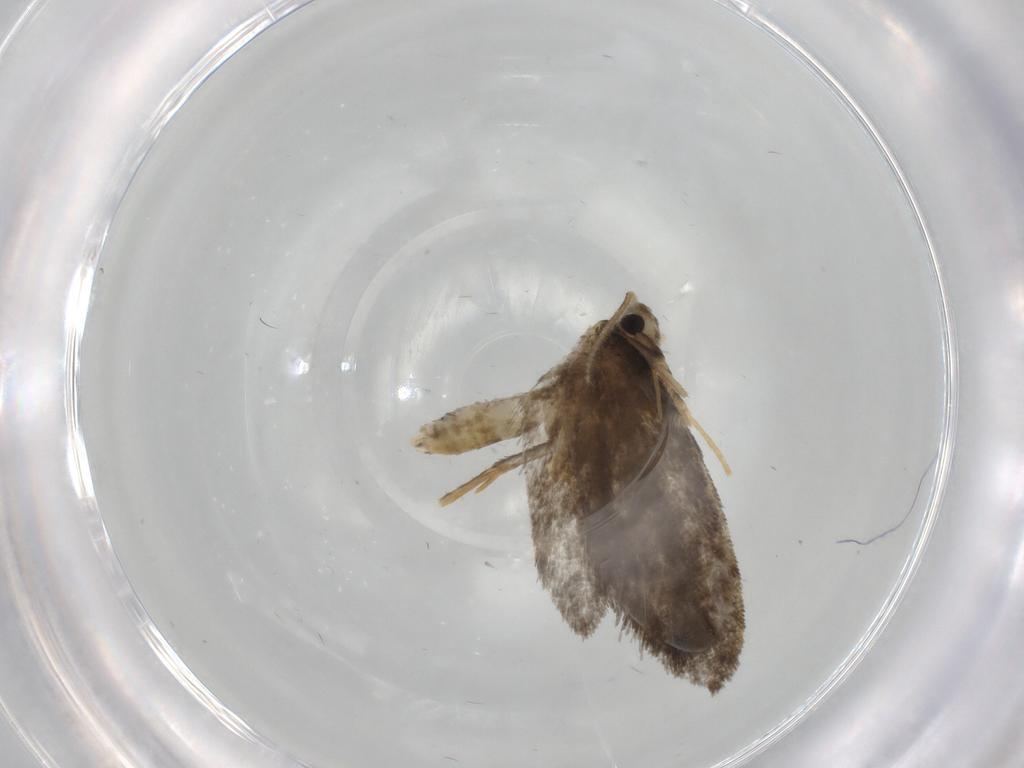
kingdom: Animalia
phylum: Arthropoda
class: Insecta
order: Lepidoptera
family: Psychidae
